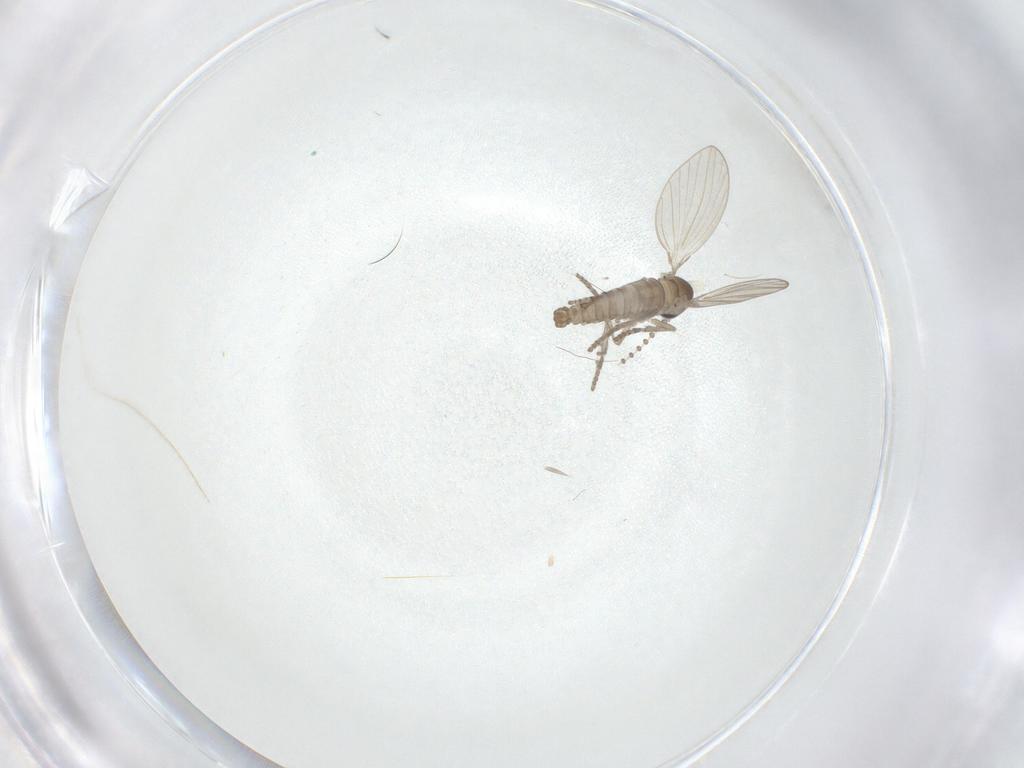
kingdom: Animalia
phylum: Arthropoda
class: Insecta
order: Diptera
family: Psychodidae
